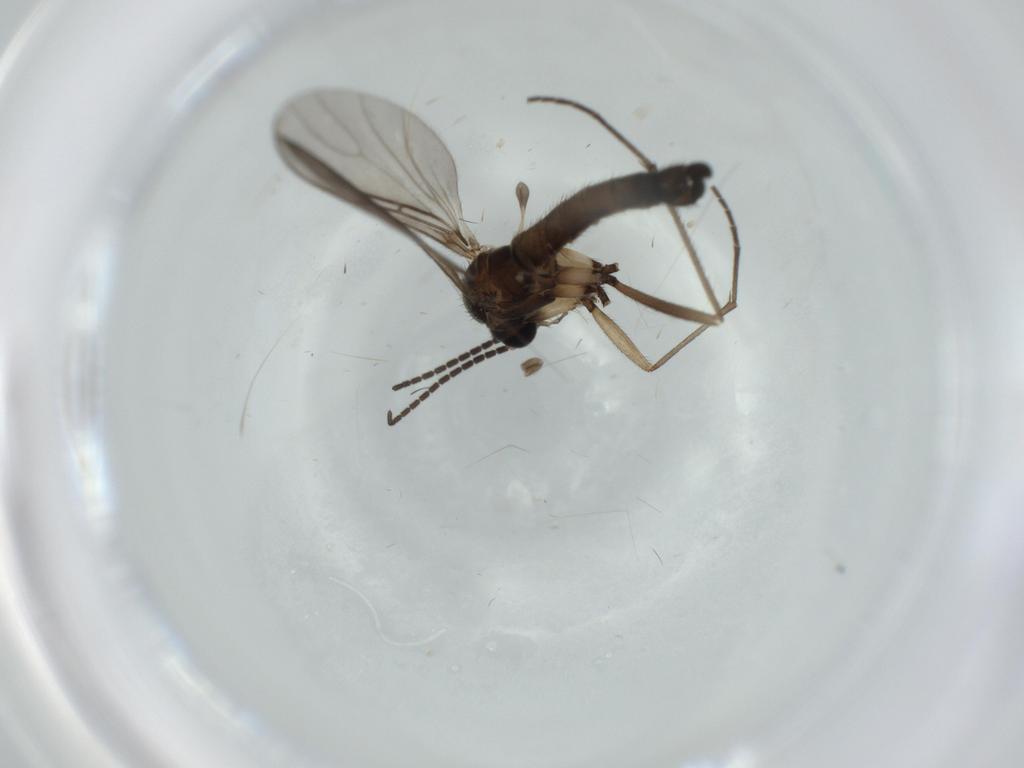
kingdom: Animalia
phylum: Arthropoda
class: Insecta
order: Diptera
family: Sciaridae
